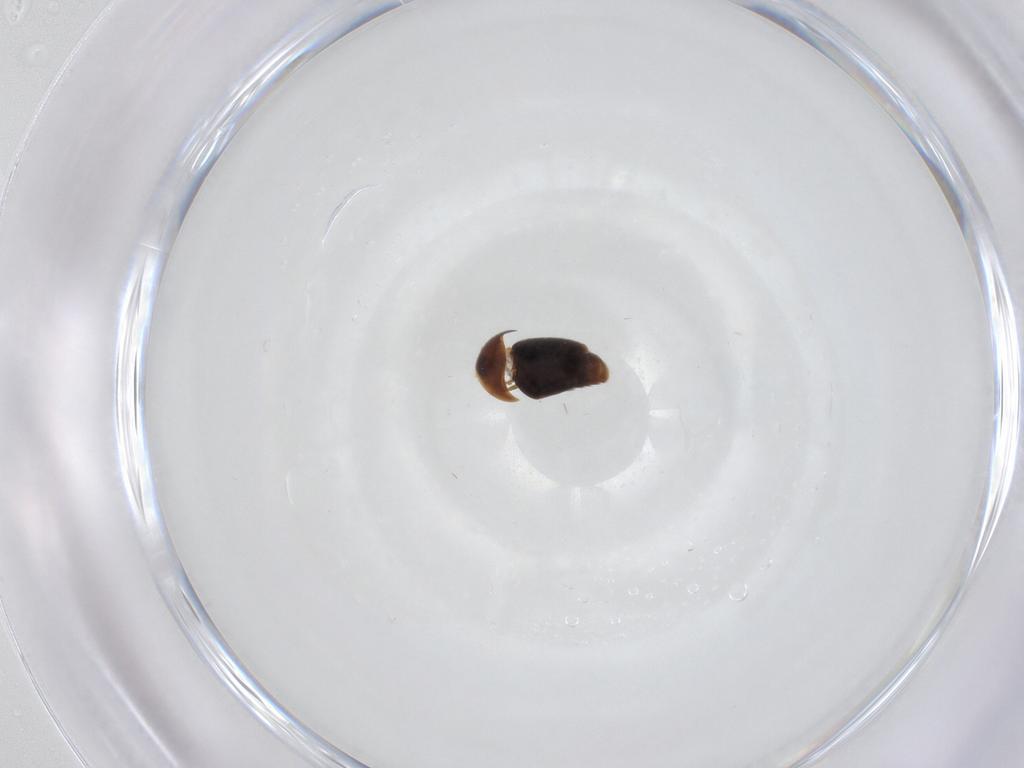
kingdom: Animalia
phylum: Arthropoda
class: Insecta
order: Coleoptera
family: Corylophidae
